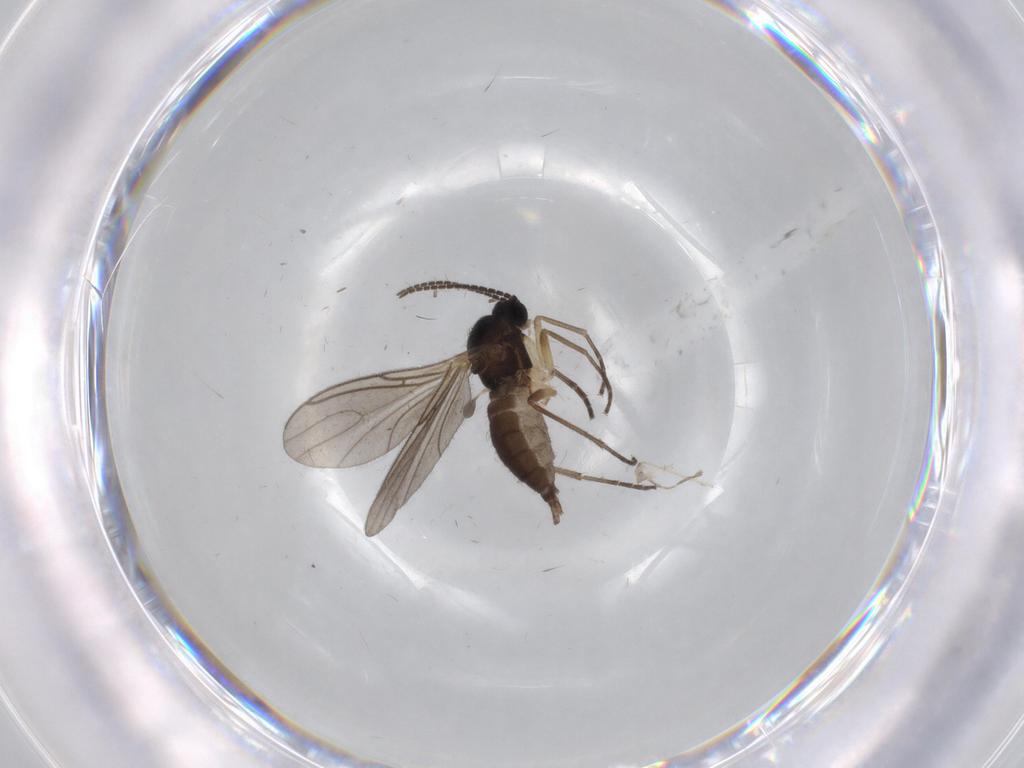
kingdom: Animalia
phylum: Arthropoda
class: Insecta
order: Diptera
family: Sciaridae
